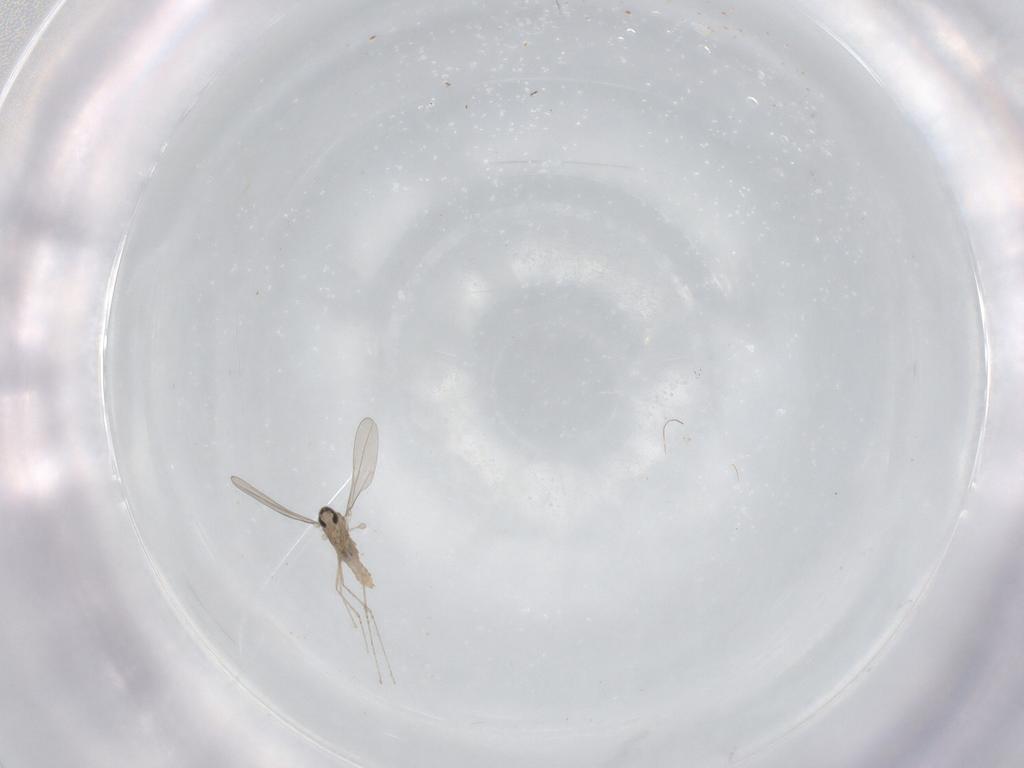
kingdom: Animalia
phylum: Arthropoda
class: Insecta
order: Diptera
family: Cecidomyiidae
